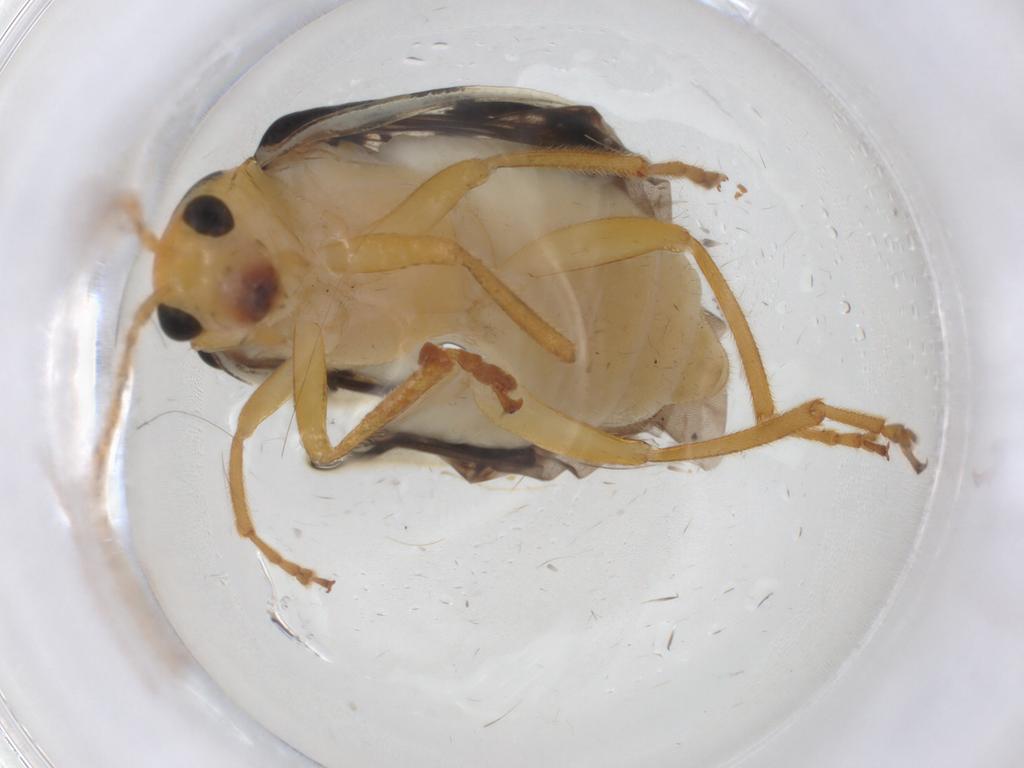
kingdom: Animalia
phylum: Arthropoda
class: Insecta
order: Coleoptera
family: Chrysomelidae
